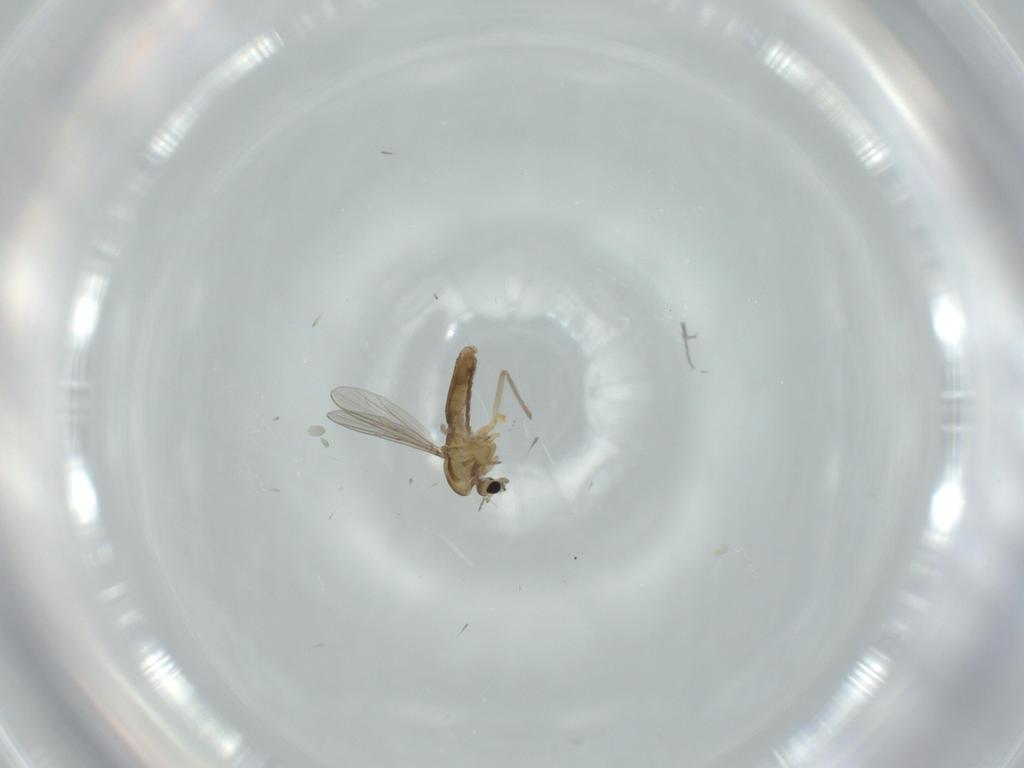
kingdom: Animalia
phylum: Arthropoda
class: Insecta
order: Diptera
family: Chironomidae
